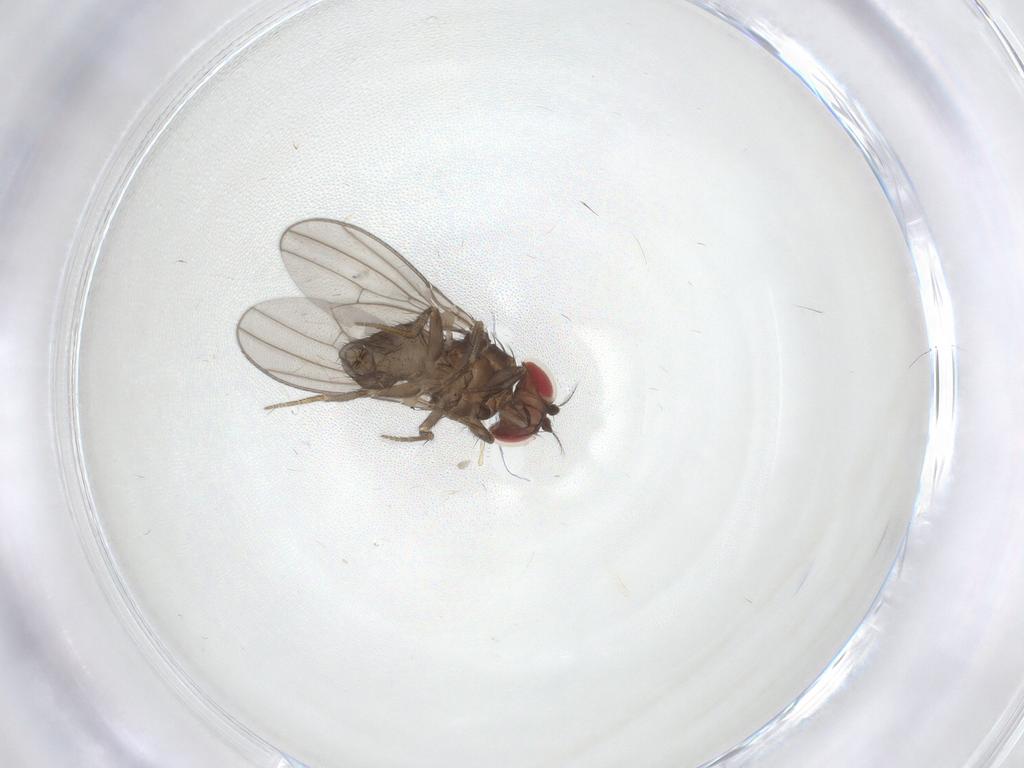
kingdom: Animalia
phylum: Arthropoda
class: Insecta
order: Diptera
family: Drosophilidae
